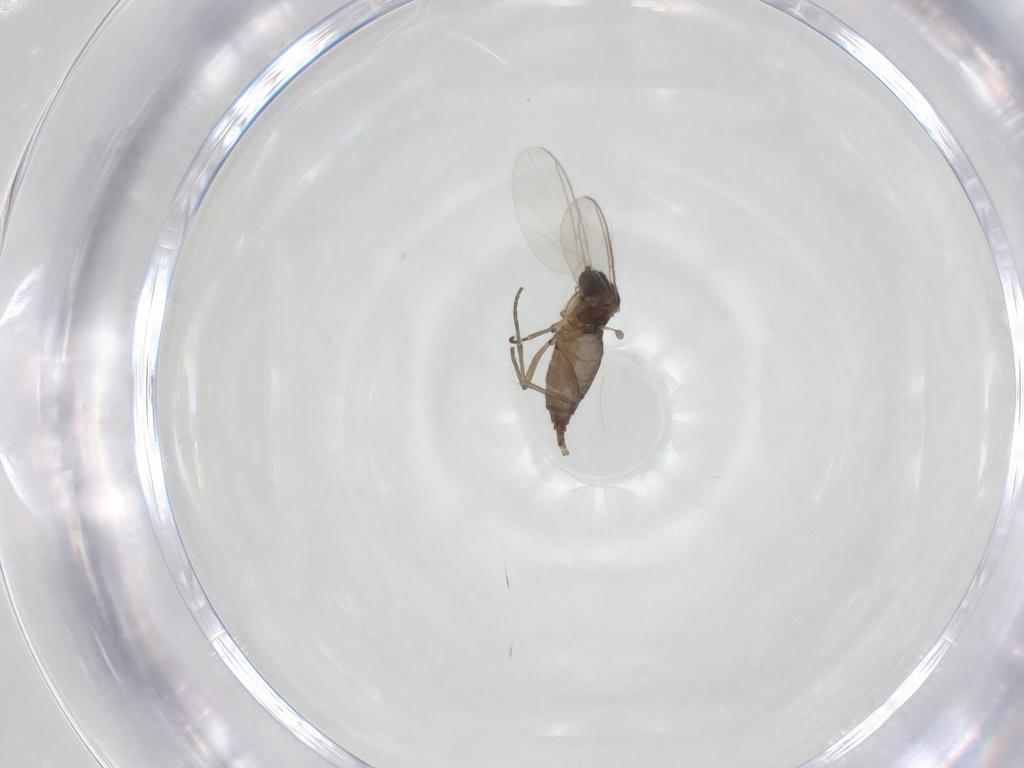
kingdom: Animalia
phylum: Arthropoda
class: Insecta
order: Diptera
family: Sciaridae
